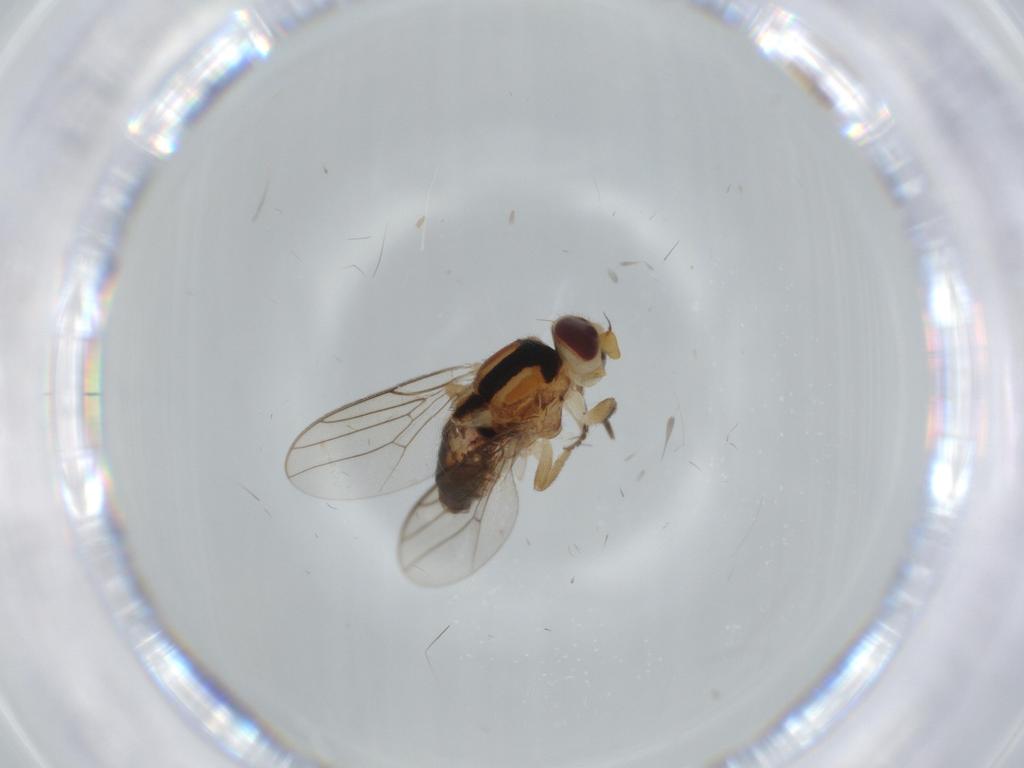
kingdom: Animalia
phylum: Arthropoda
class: Insecta
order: Diptera
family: Chloropidae
